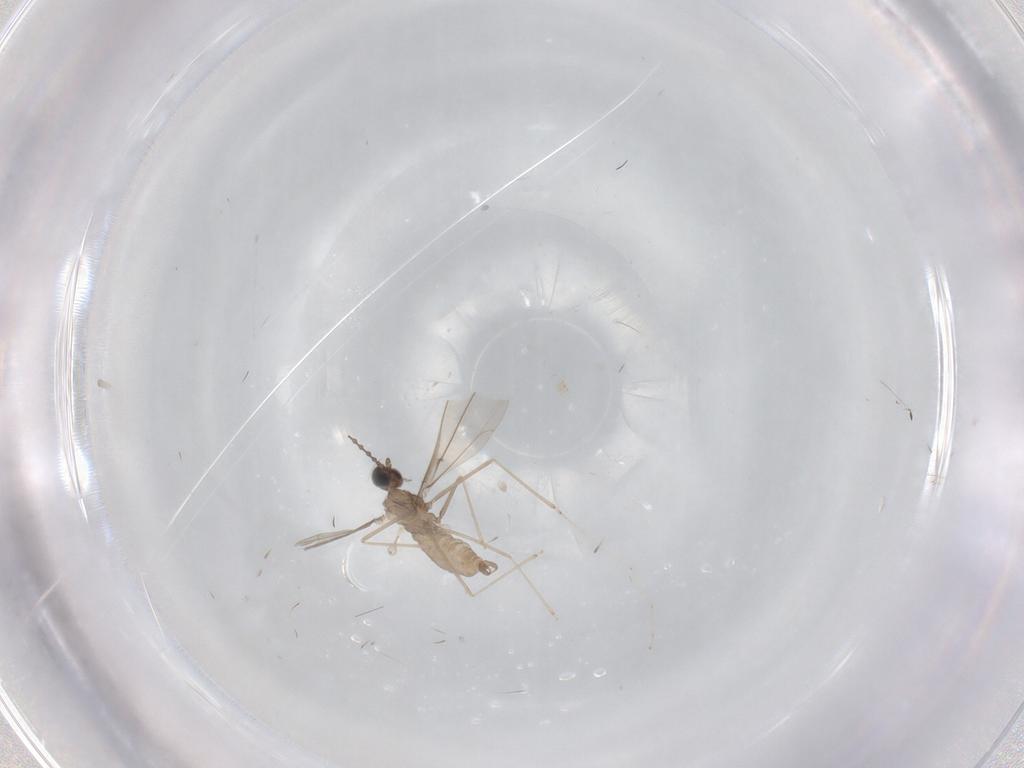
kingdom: Animalia
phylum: Arthropoda
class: Insecta
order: Diptera
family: Mycetophilidae
